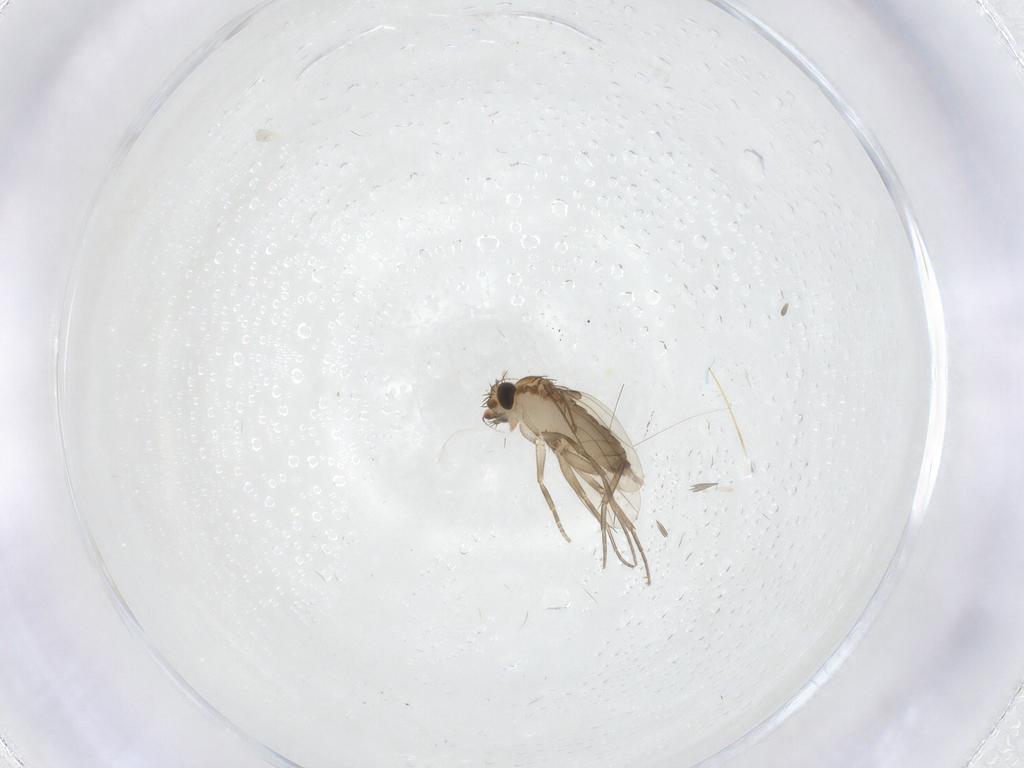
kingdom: Animalia
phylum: Arthropoda
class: Insecta
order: Diptera
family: Phoridae
